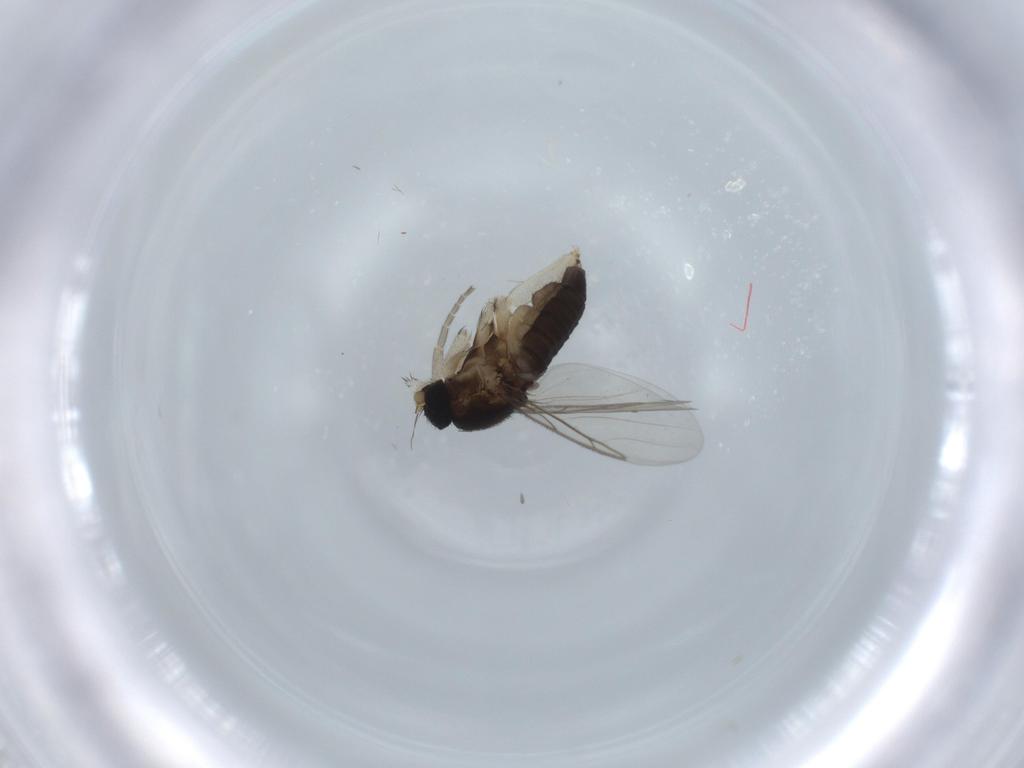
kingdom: Animalia
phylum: Arthropoda
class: Insecta
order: Diptera
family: Phoridae
